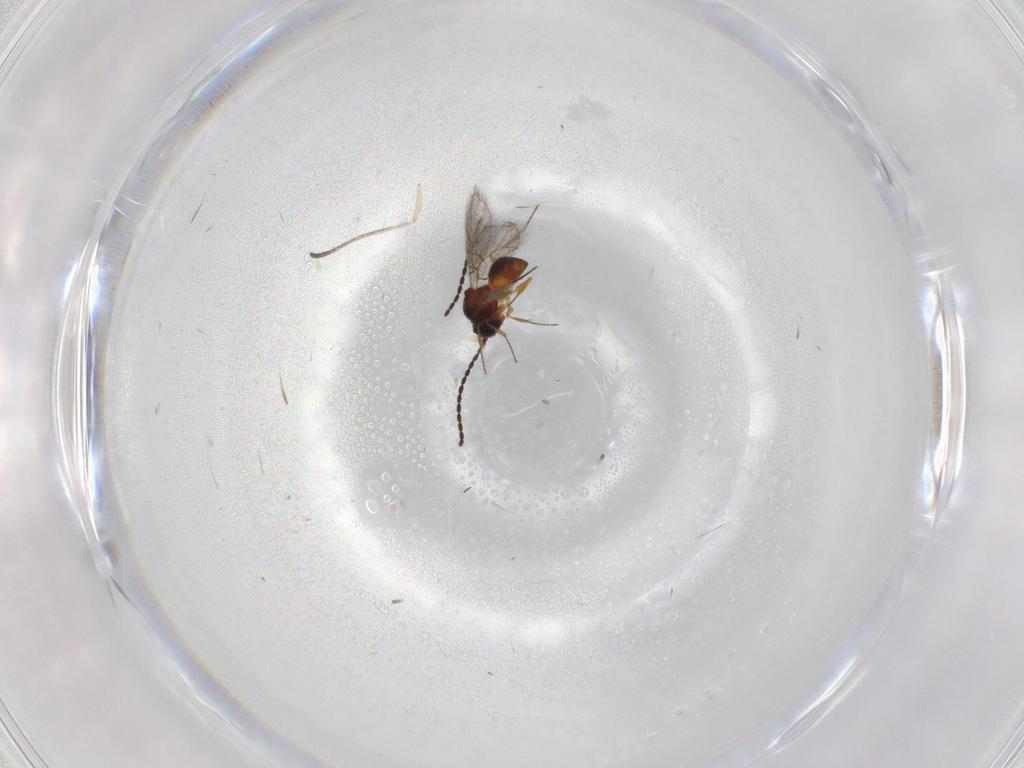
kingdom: Animalia
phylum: Arthropoda
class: Insecta
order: Hymenoptera
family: Figitidae
